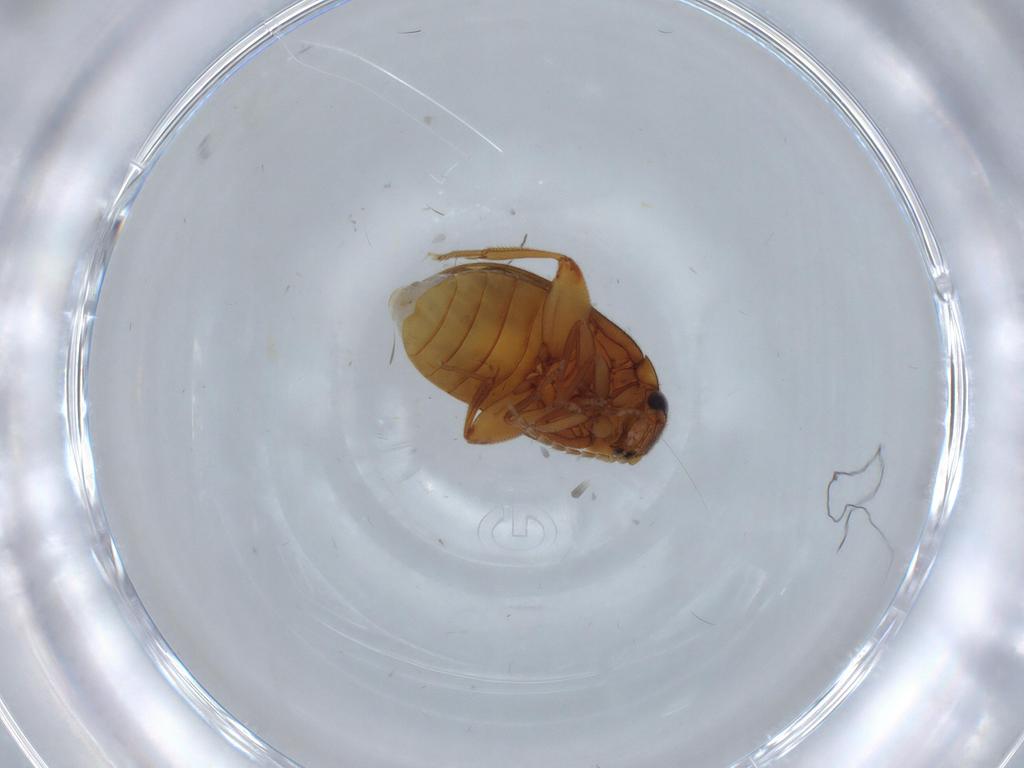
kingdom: Animalia
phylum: Arthropoda
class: Insecta
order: Coleoptera
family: Scirtidae
